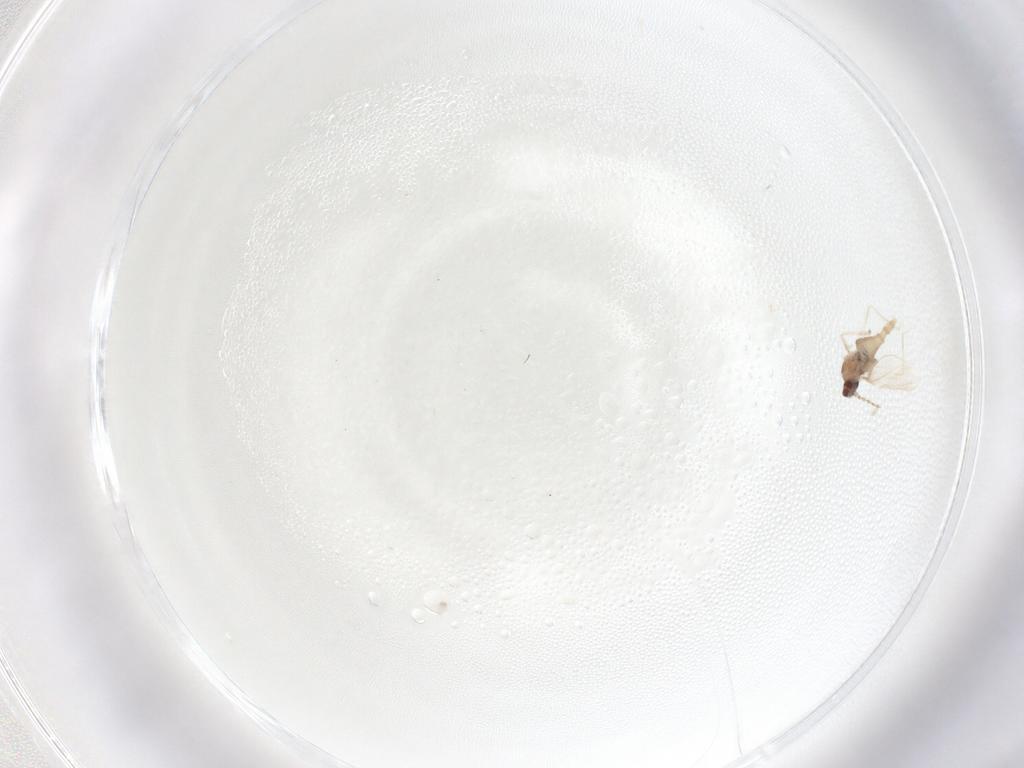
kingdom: Animalia
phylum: Arthropoda
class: Insecta
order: Diptera
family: Cecidomyiidae
